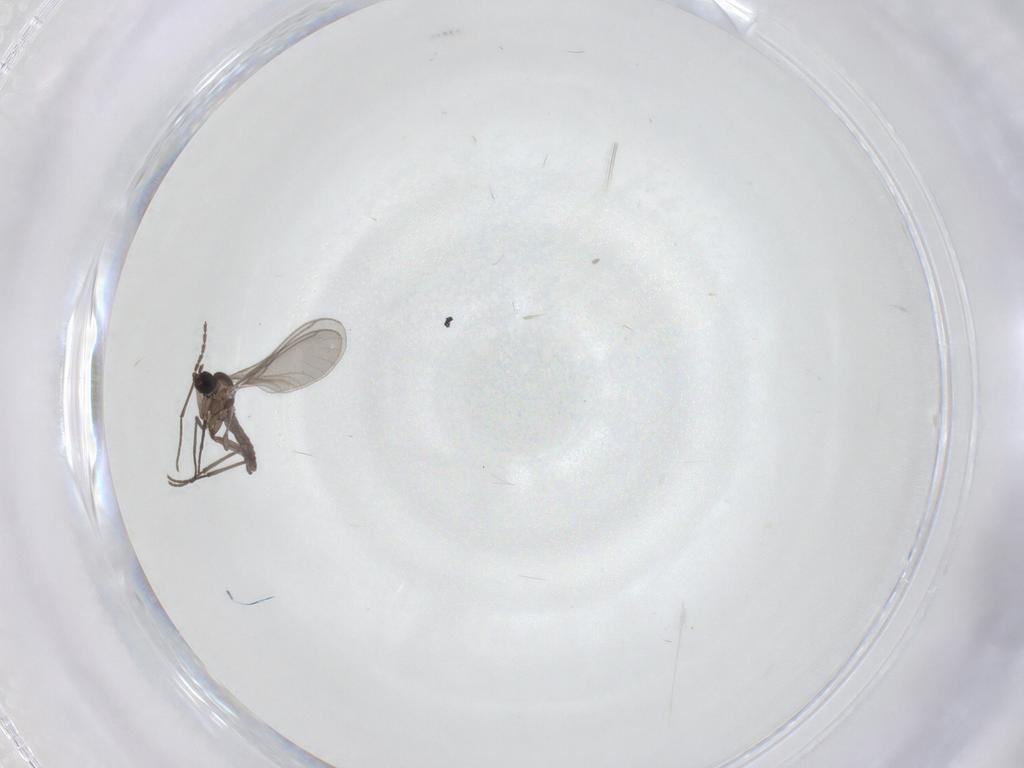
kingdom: Animalia
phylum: Arthropoda
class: Insecta
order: Diptera
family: Sciaridae
